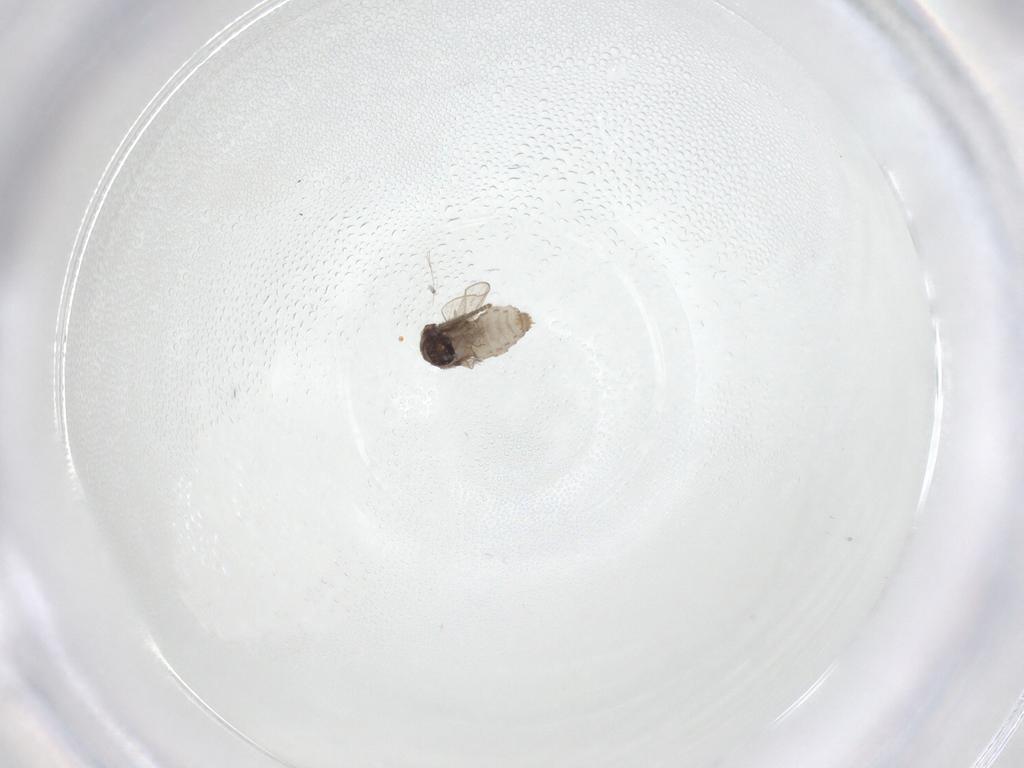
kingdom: Animalia
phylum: Arthropoda
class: Insecta
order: Diptera
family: Psychodidae
